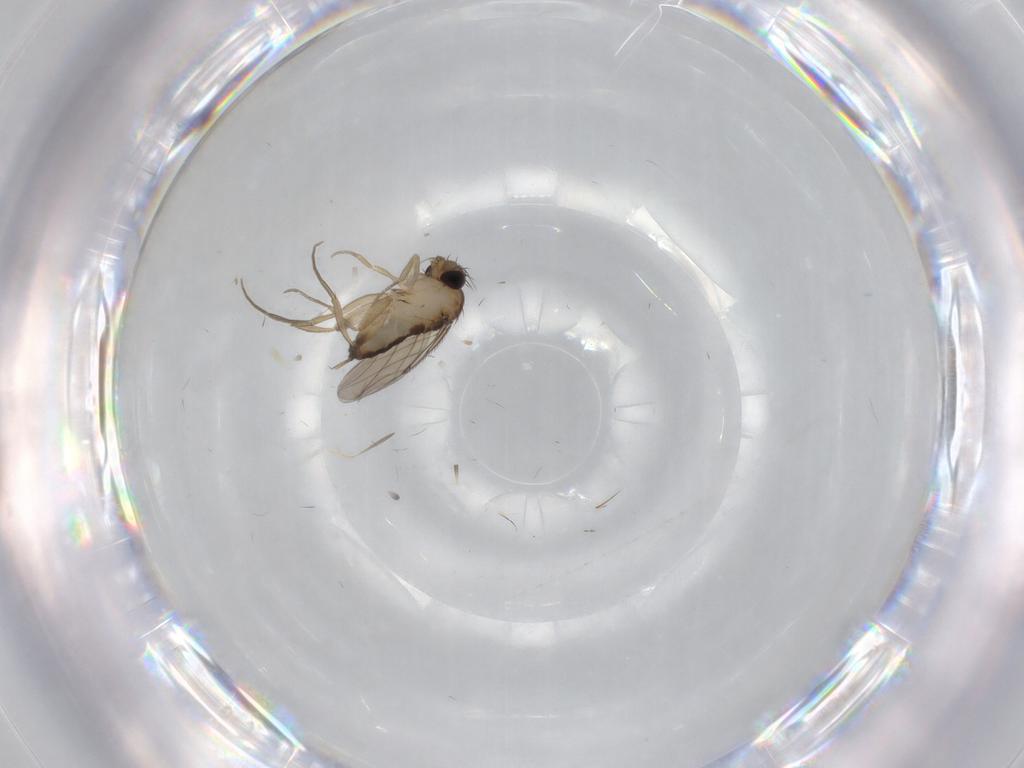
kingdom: Animalia
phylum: Arthropoda
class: Insecta
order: Diptera
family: Phoridae
